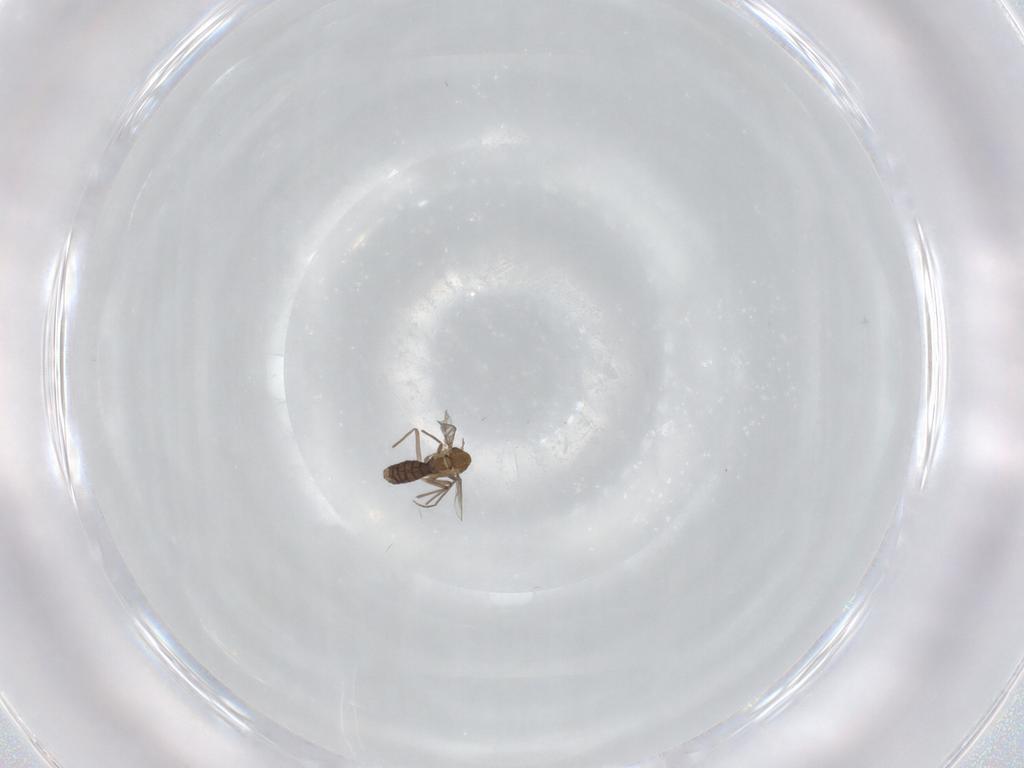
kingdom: Animalia
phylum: Arthropoda
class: Insecta
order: Diptera
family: Chironomidae
